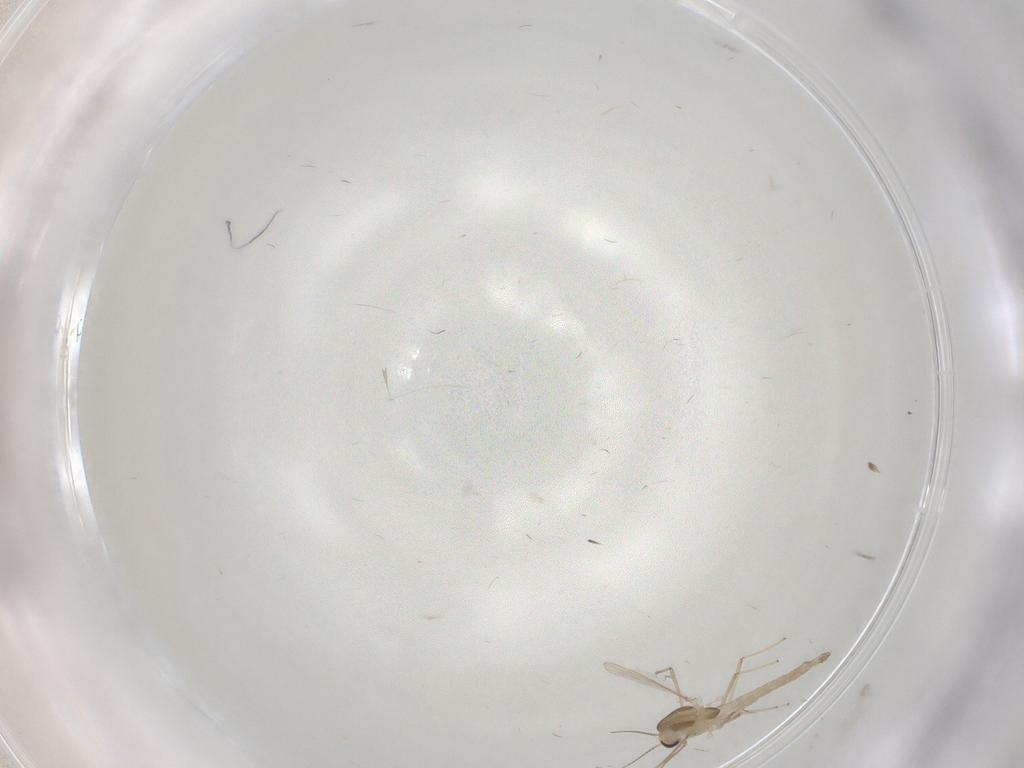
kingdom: Animalia
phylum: Arthropoda
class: Insecta
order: Diptera
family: Chironomidae
